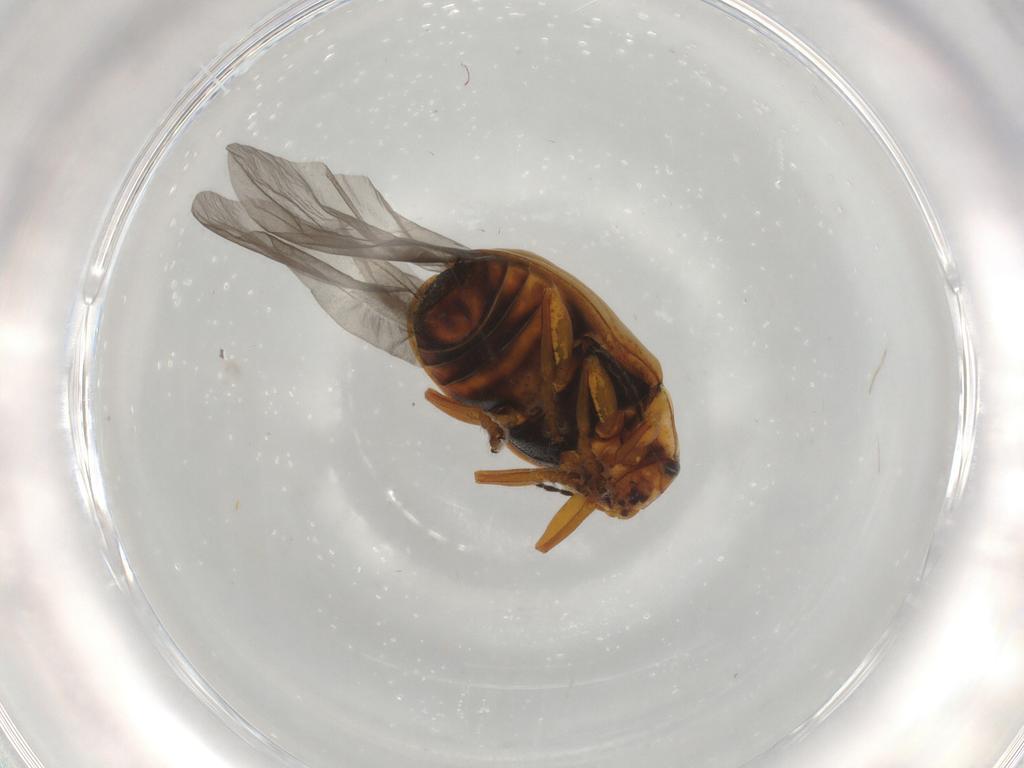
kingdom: Animalia
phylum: Arthropoda
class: Insecta
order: Coleoptera
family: Chrysomelidae
